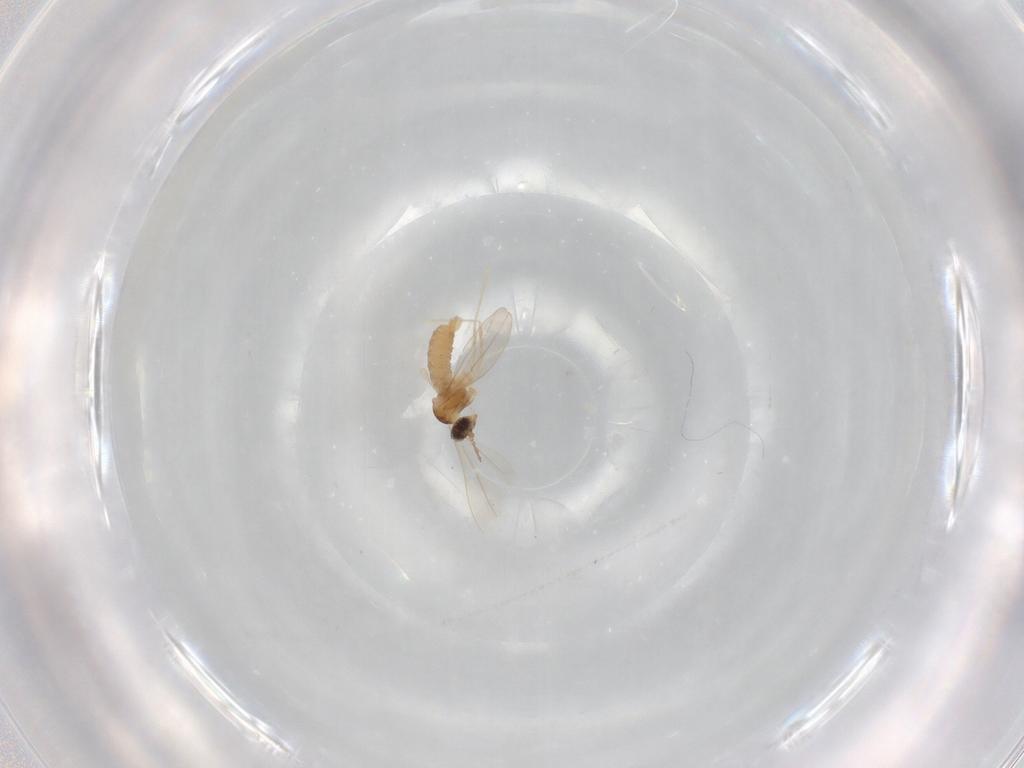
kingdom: Animalia
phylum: Arthropoda
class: Insecta
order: Diptera
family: Cecidomyiidae
